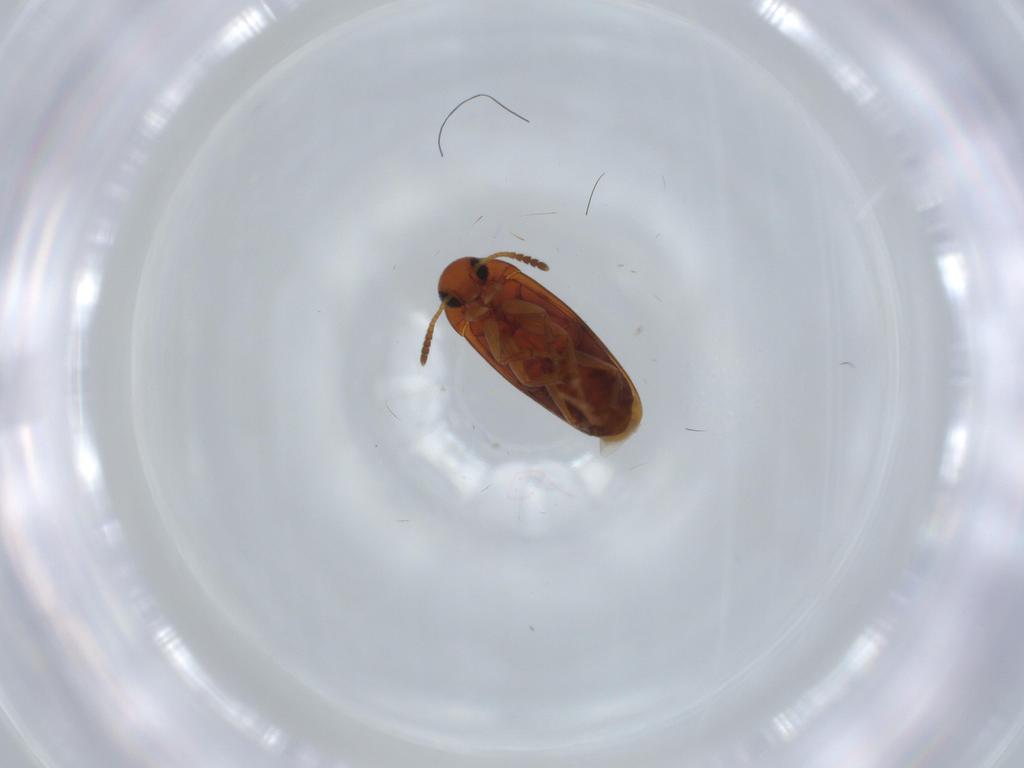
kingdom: Animalia
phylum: Arthropoda
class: Insecta
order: Coleoptera
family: Scraptiidae
